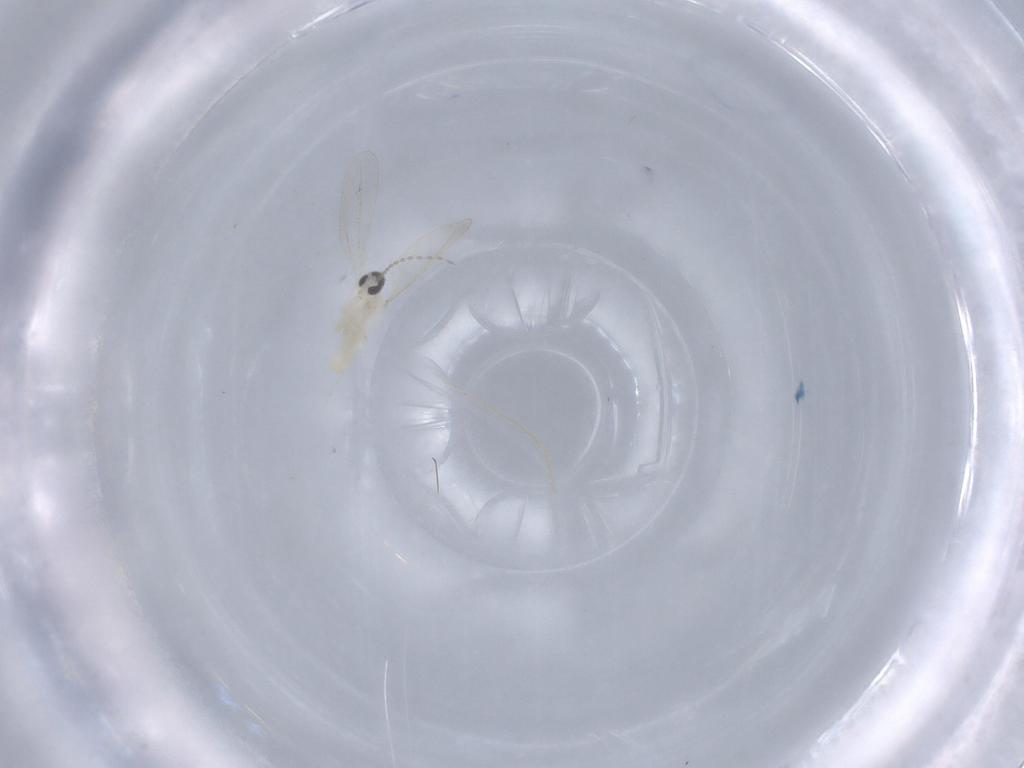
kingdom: Animalia
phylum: Arthropoda
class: Insecta
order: Diptera
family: Cecidomyiidae
